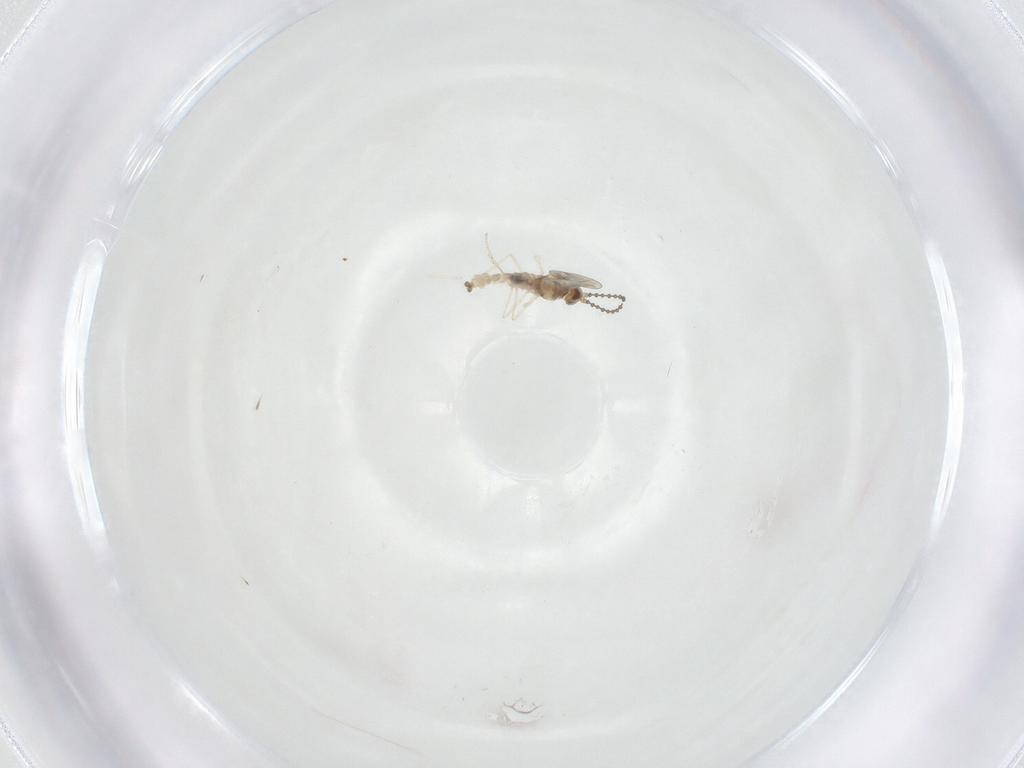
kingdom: Animalia
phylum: Arthropoda
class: Insecta
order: Diptera
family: Cecidomyiidae
